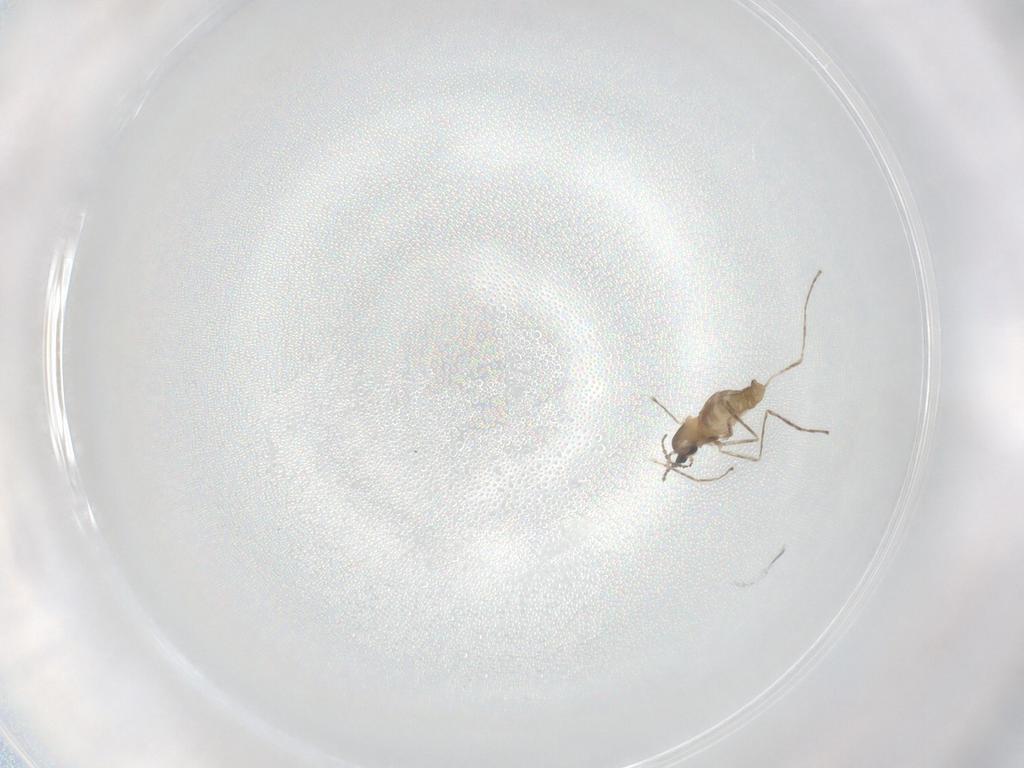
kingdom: Animalia
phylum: Arthropoda
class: Insecta
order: Diptera
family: Cecidomyiidae
